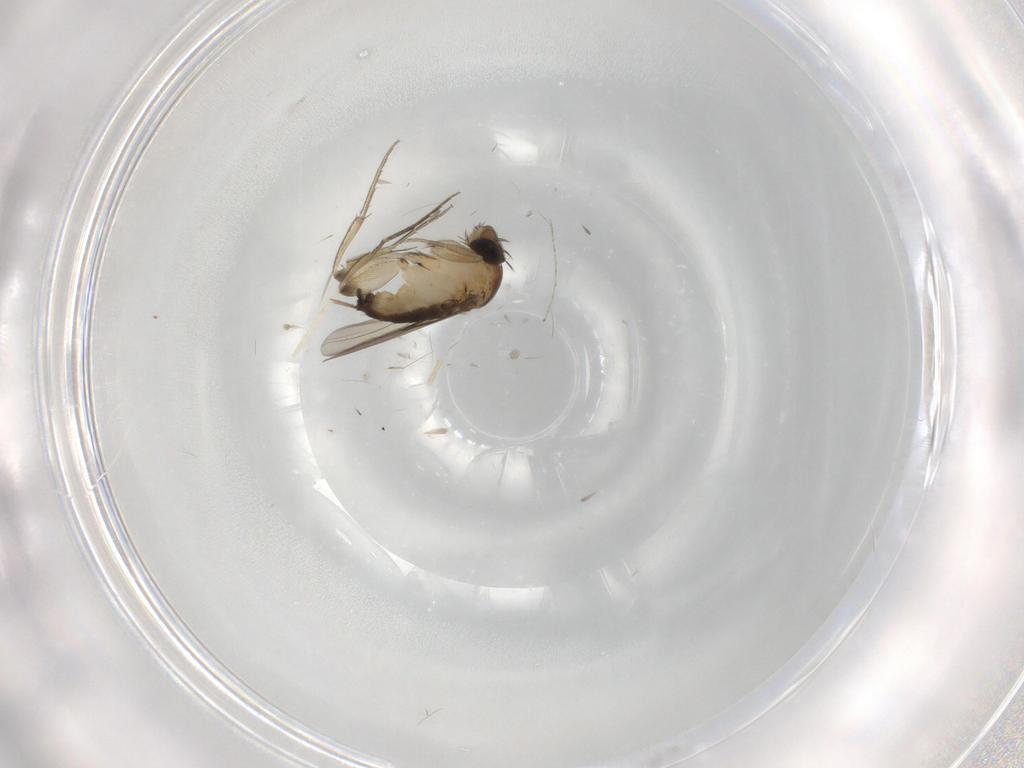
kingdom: Animalia
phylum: Arthropoda
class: Insecta
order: Diptera
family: Phoridae
